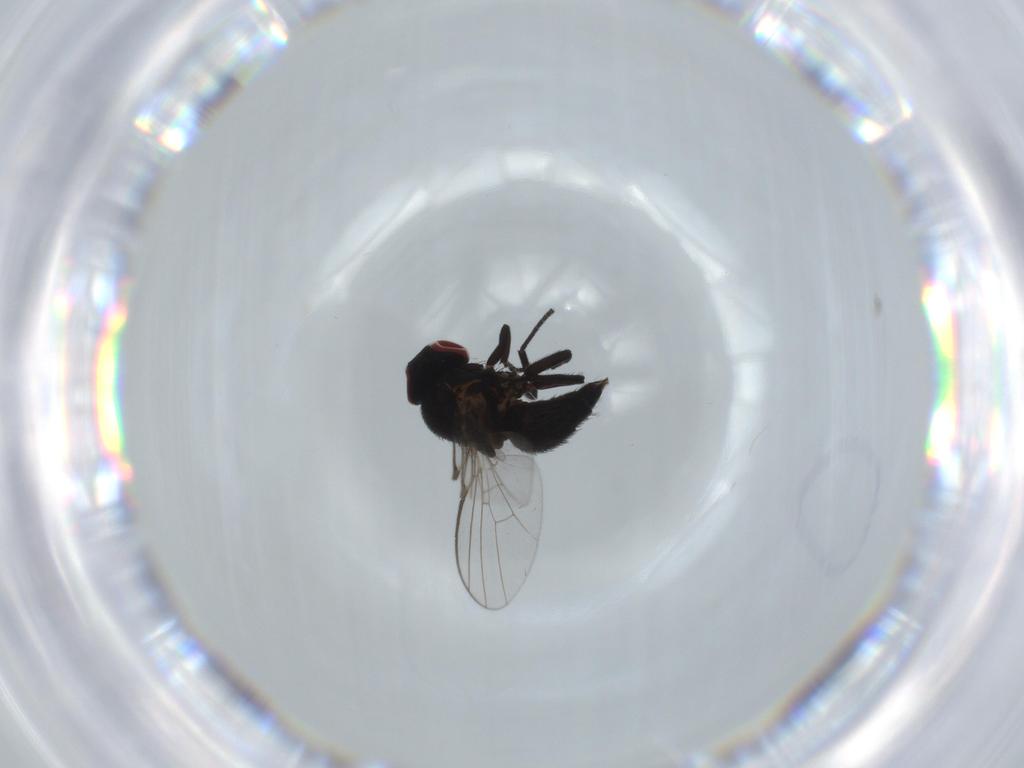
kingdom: Animalia
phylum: Arthropoda
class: Insecta
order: Diptera
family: Agromyzidae
